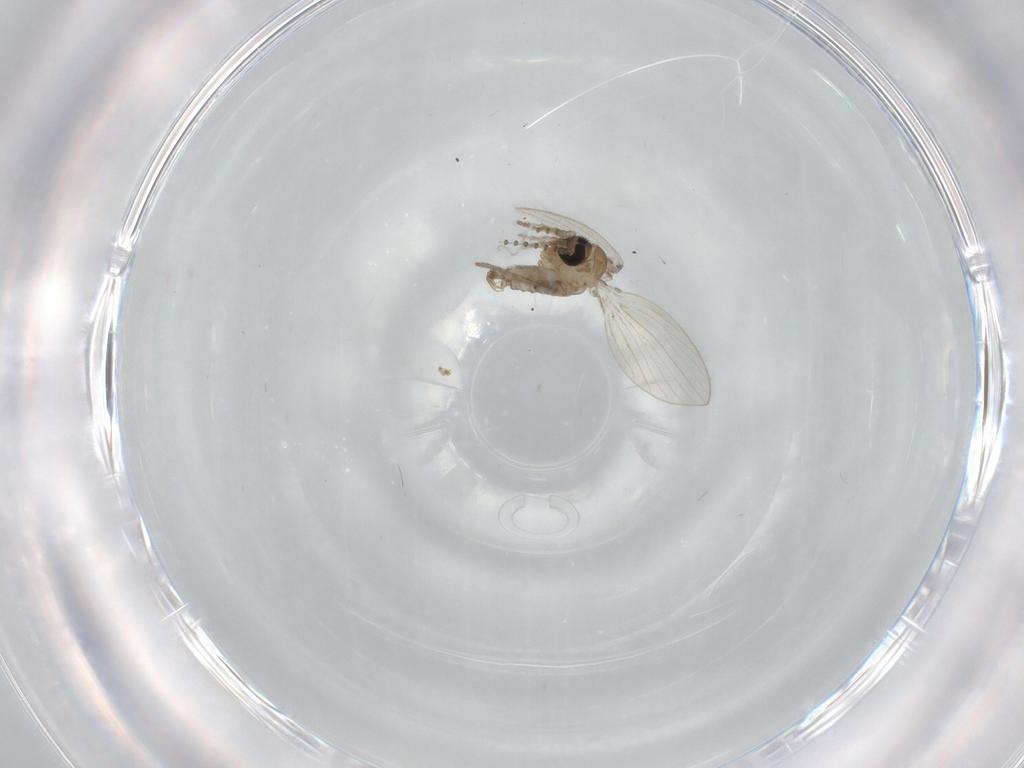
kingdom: Animalia
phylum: Arthropoda
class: Insecta
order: Diptera
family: Psychodidae
